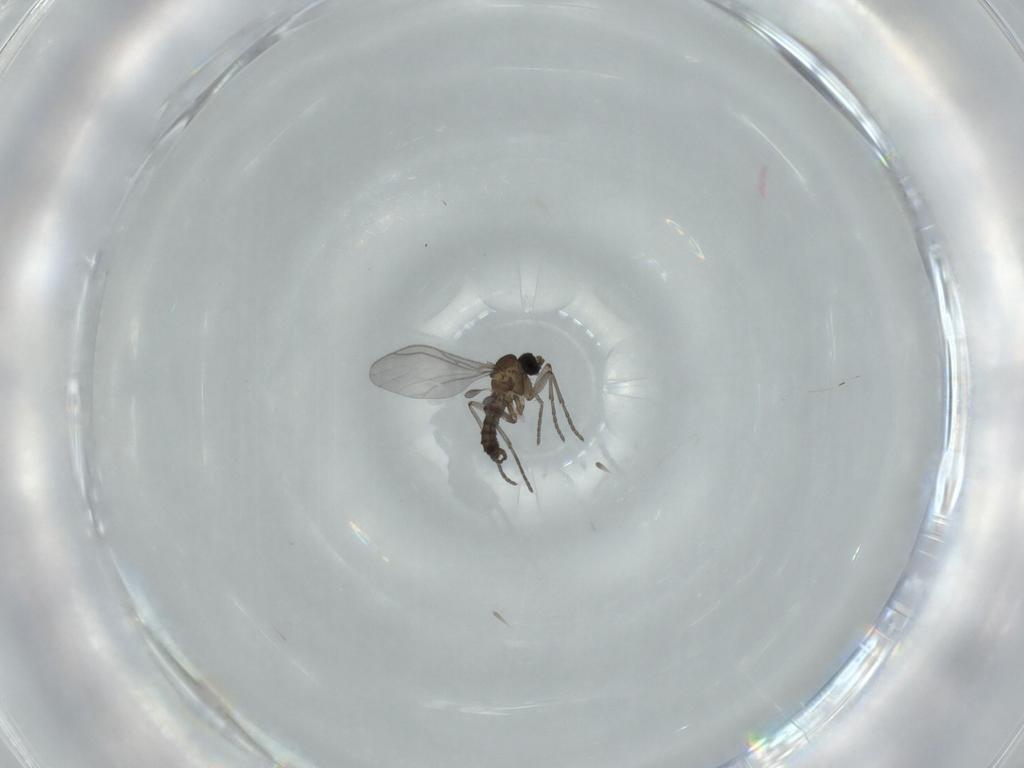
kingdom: Animalia
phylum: Arthropoda
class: Insecta
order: Diptera
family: Sciaridae
